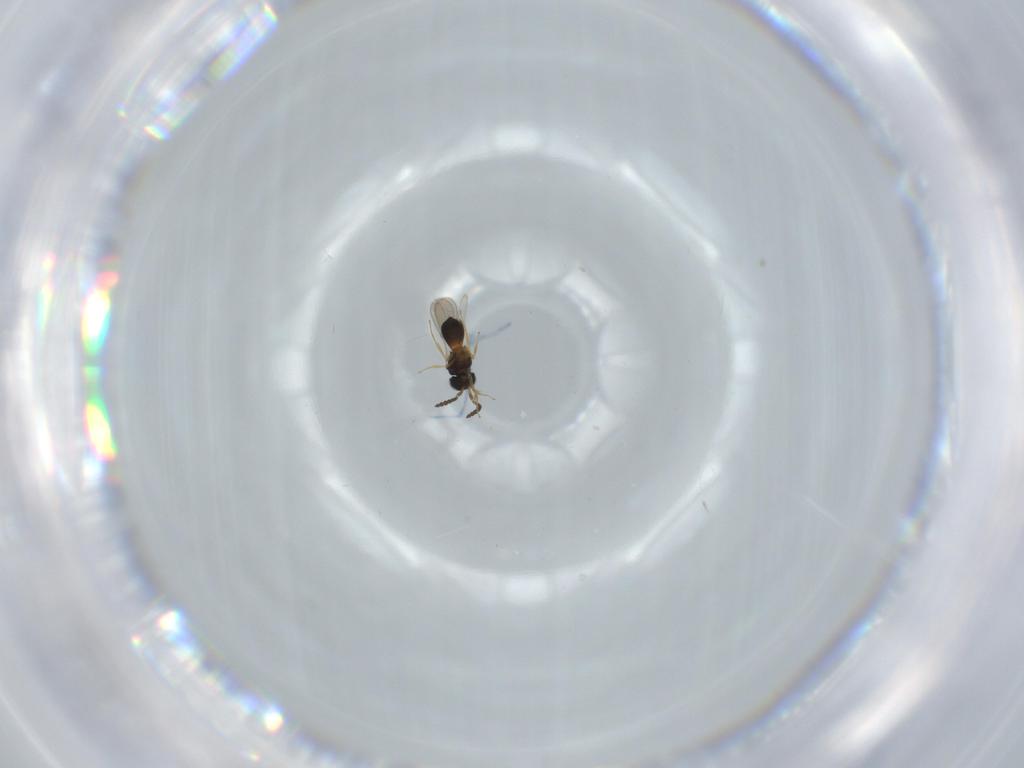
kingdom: Animalia
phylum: Arthropoda
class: Insecta
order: Hymenoptera
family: Scelionidae
